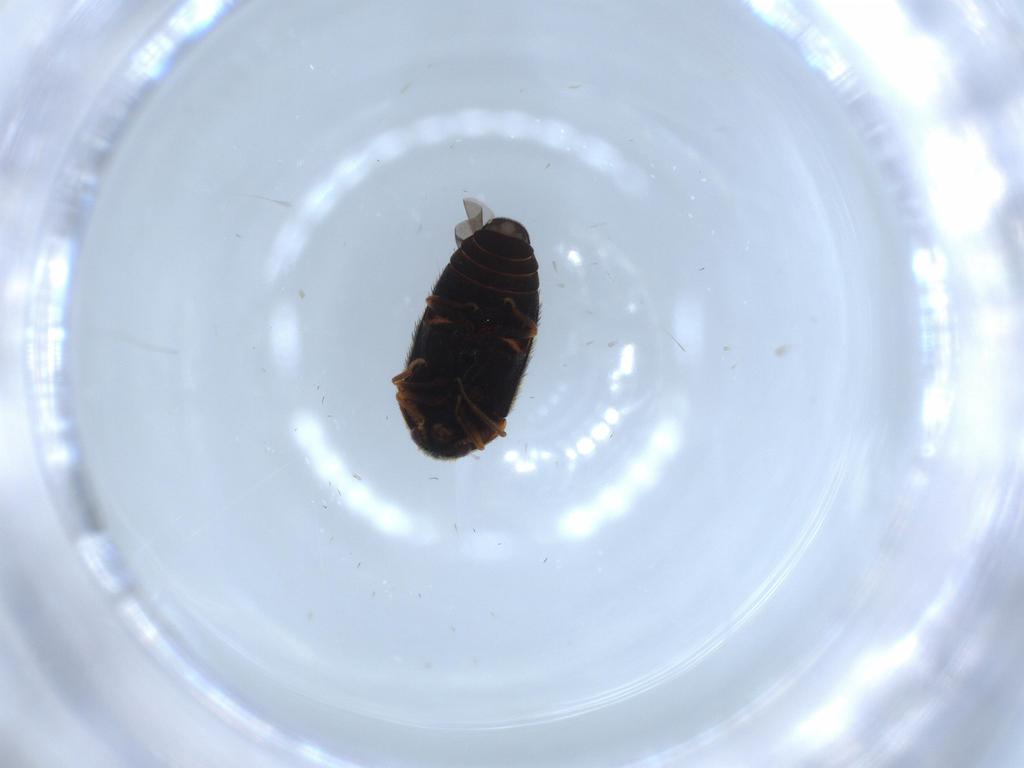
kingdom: Animalia
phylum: Arthropoda
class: Insecta
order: Coleoptera
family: Dermestidae
